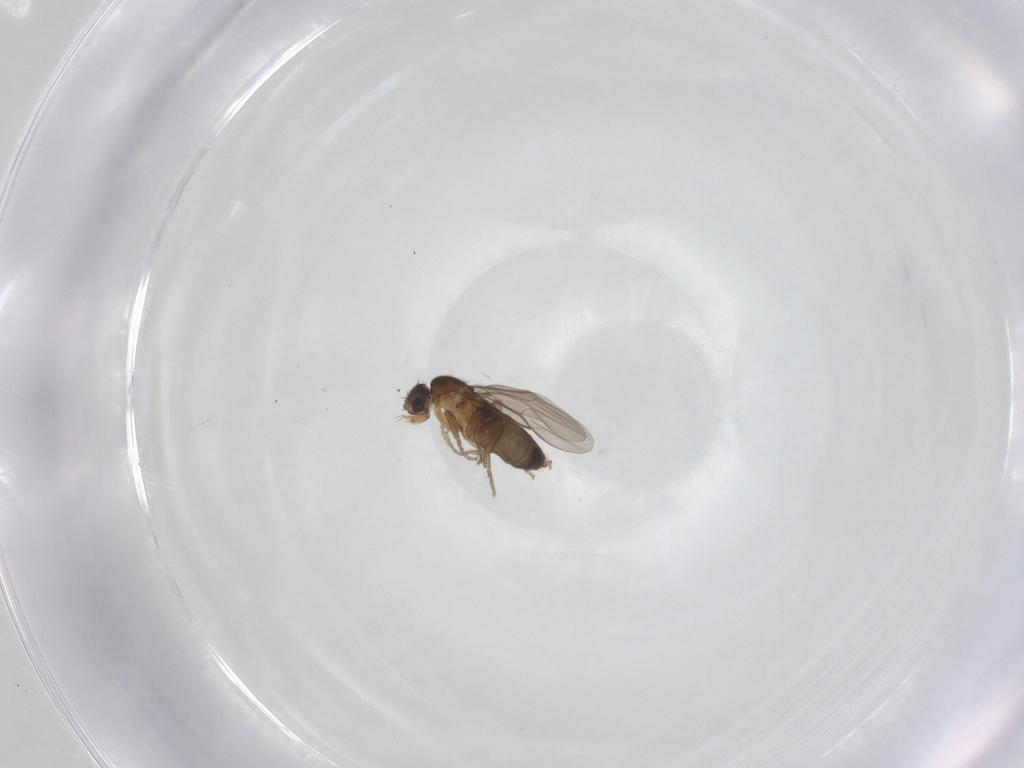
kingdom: Animalia
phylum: Arthropoda
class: Insecta
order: Diptera
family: Phoridae
